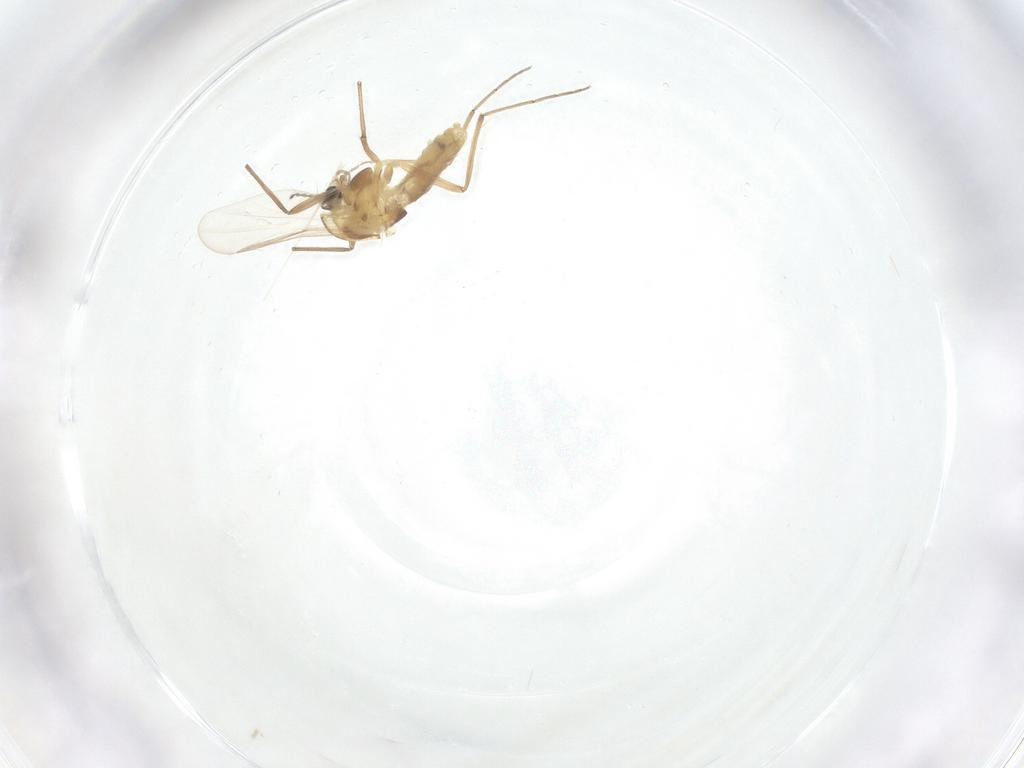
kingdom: Animalia
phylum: Arthropoda
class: Insecta
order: Diptera
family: Chironomidae
